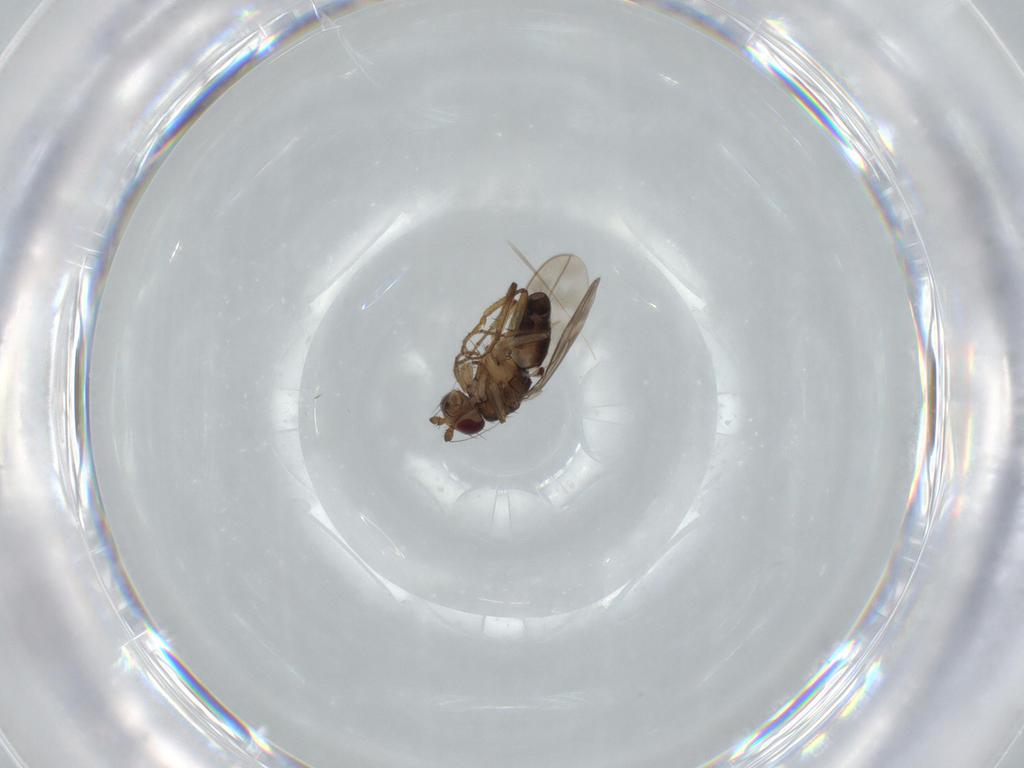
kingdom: Animalia
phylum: Arthropoda
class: Insecta
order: Diptera
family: Sphaeroceridae
